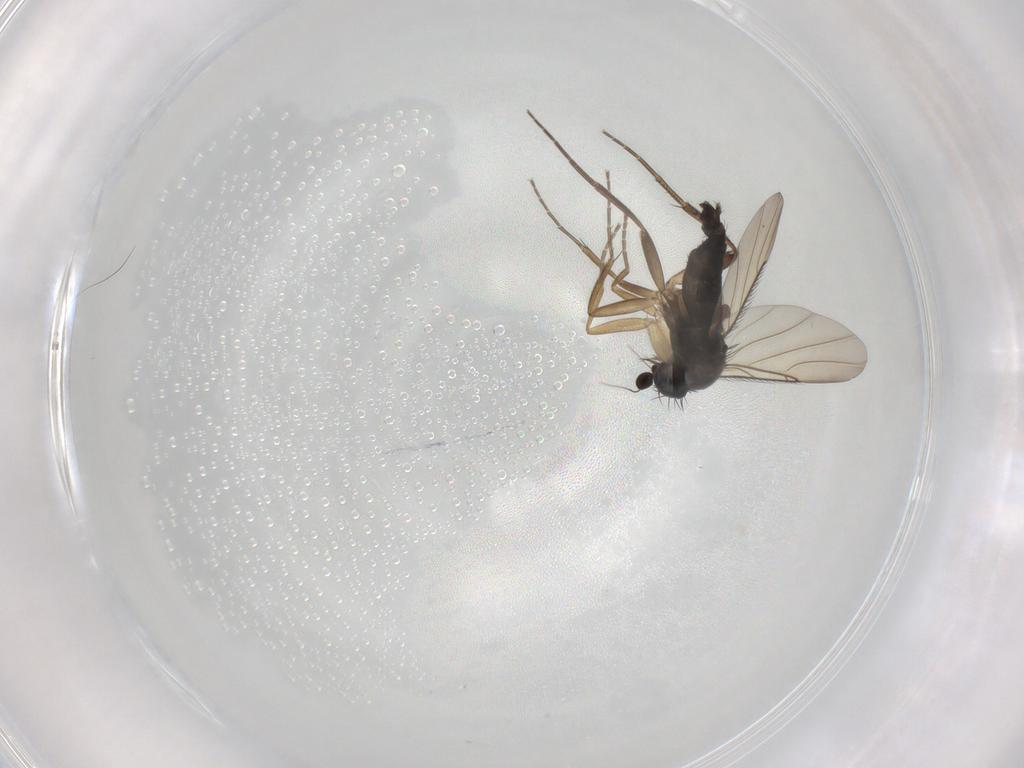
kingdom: Animalia
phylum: Arthropoda
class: Insecta
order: Diptera
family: Phoridae
